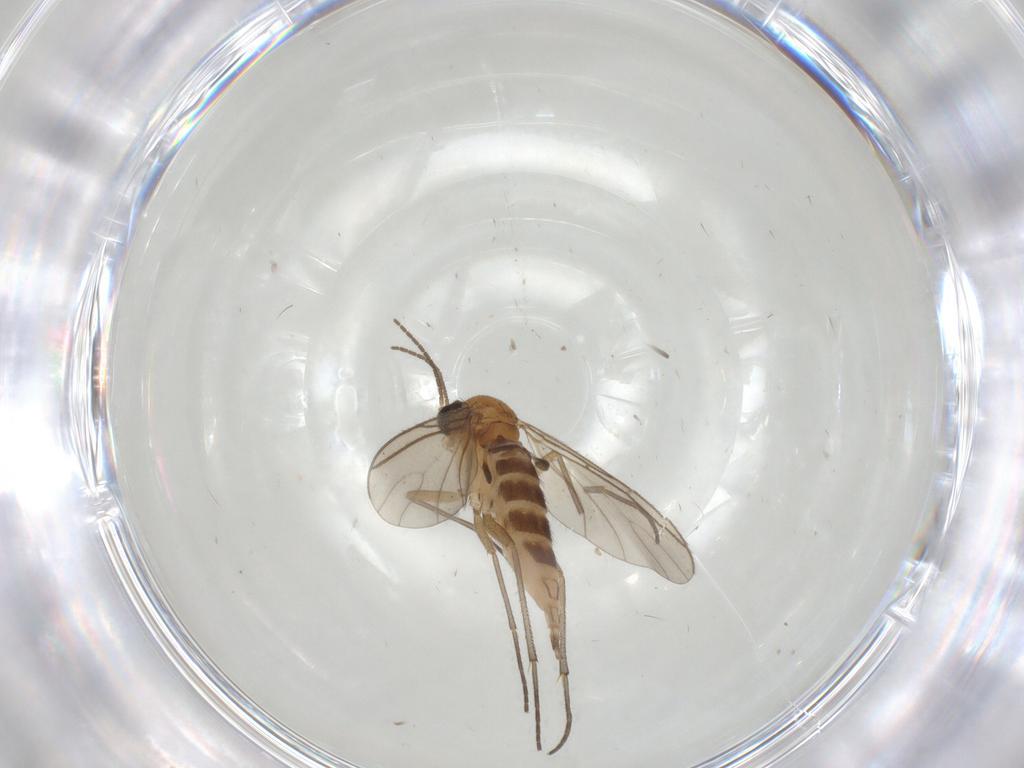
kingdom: Animalia
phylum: Arthropoda
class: Insecta
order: Diptera
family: Sciaridae
